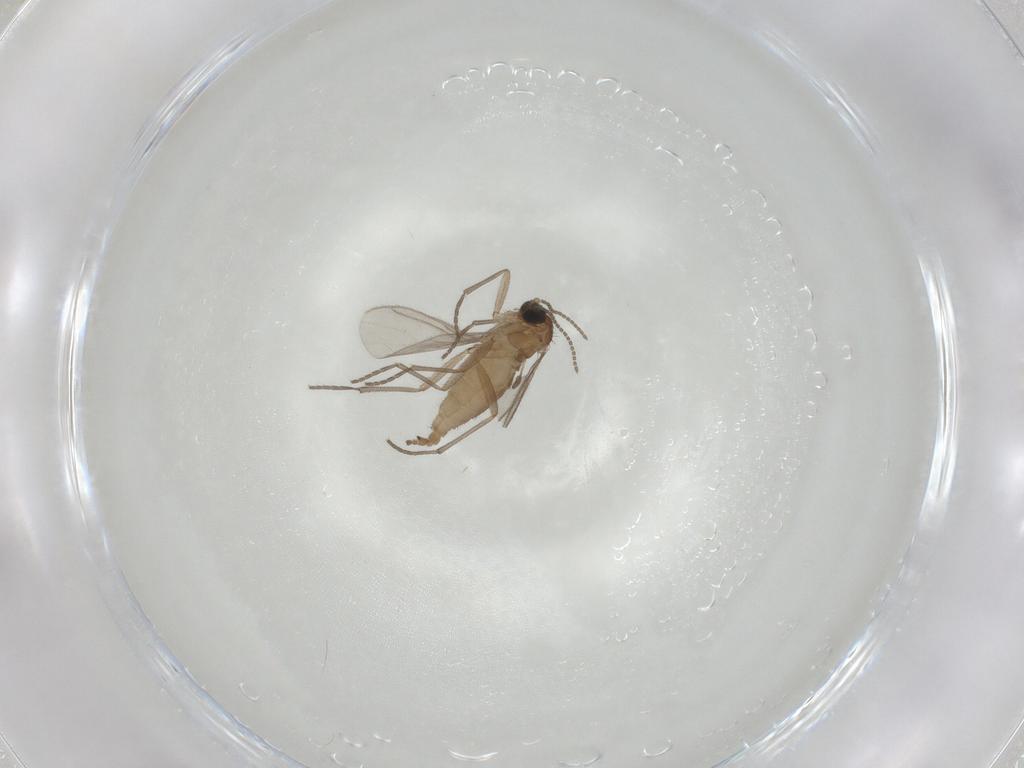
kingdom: Animalia
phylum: Arthropoda
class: Insecta
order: Diptera
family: Sciaridae
